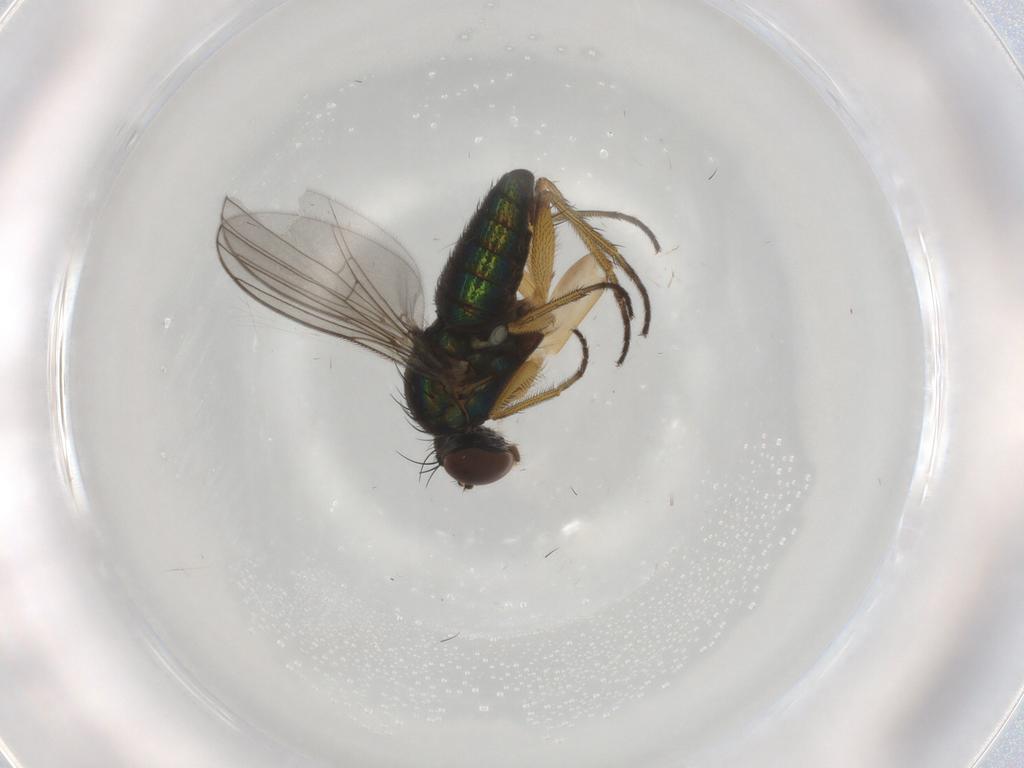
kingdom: Animalia
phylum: Arthropoda
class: Insecta
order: Diptera
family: Dolichopodidae
